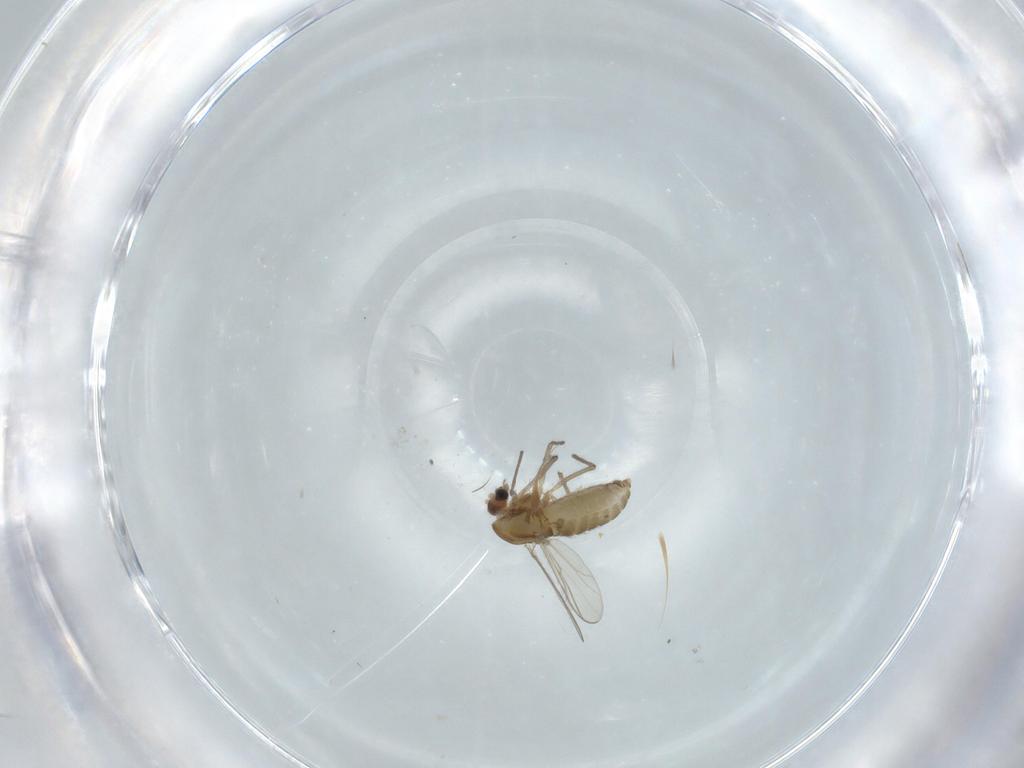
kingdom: Animalia
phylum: Arthropoda
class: Insecta
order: Diptera
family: Chironomidae
